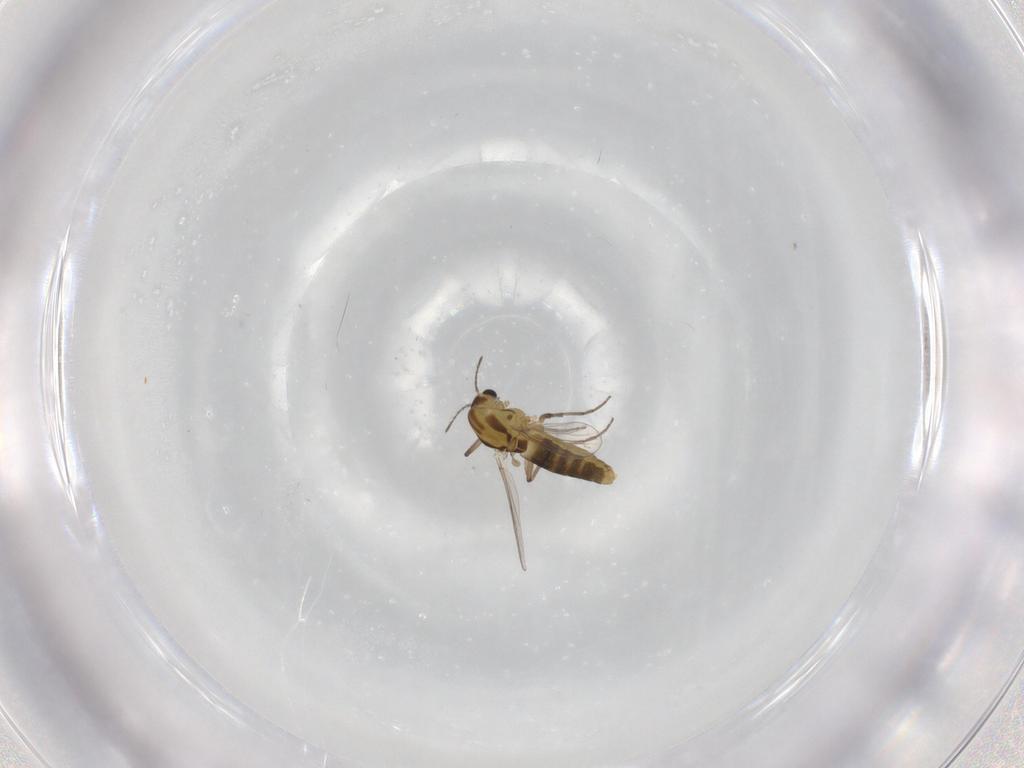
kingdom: Animalia
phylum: Arthropoda
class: Insecta
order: Diptera
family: Chironomidae
